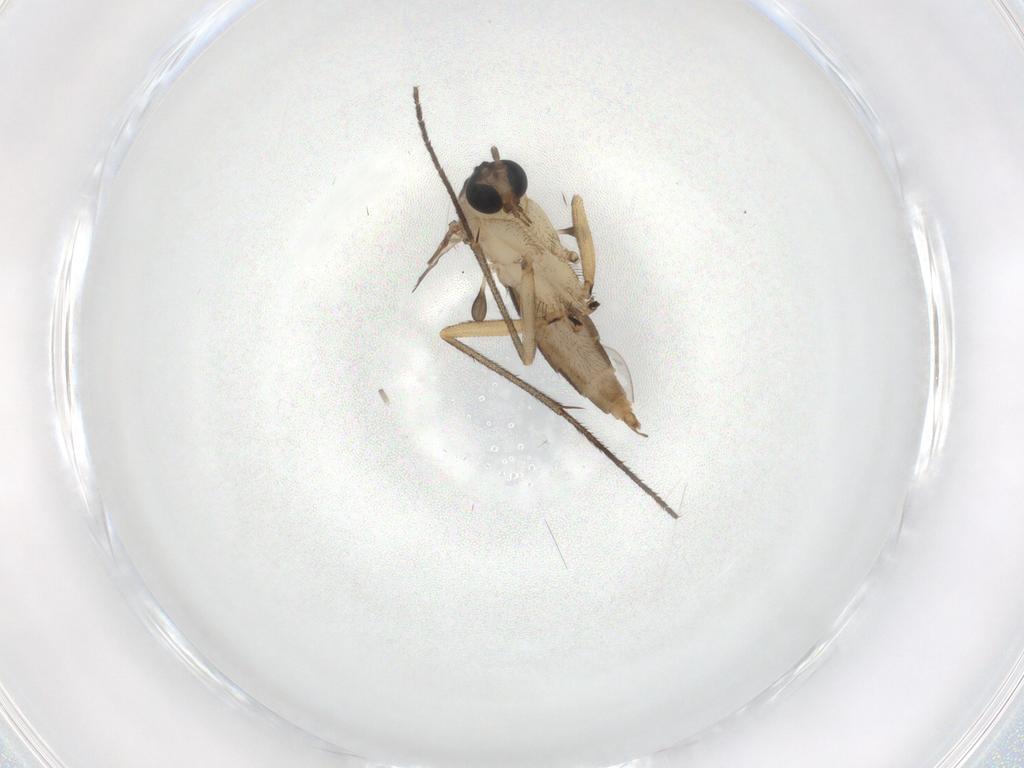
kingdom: Animalia
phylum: Arthropoda
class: Insecta
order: Diptera
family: Sciaridae
